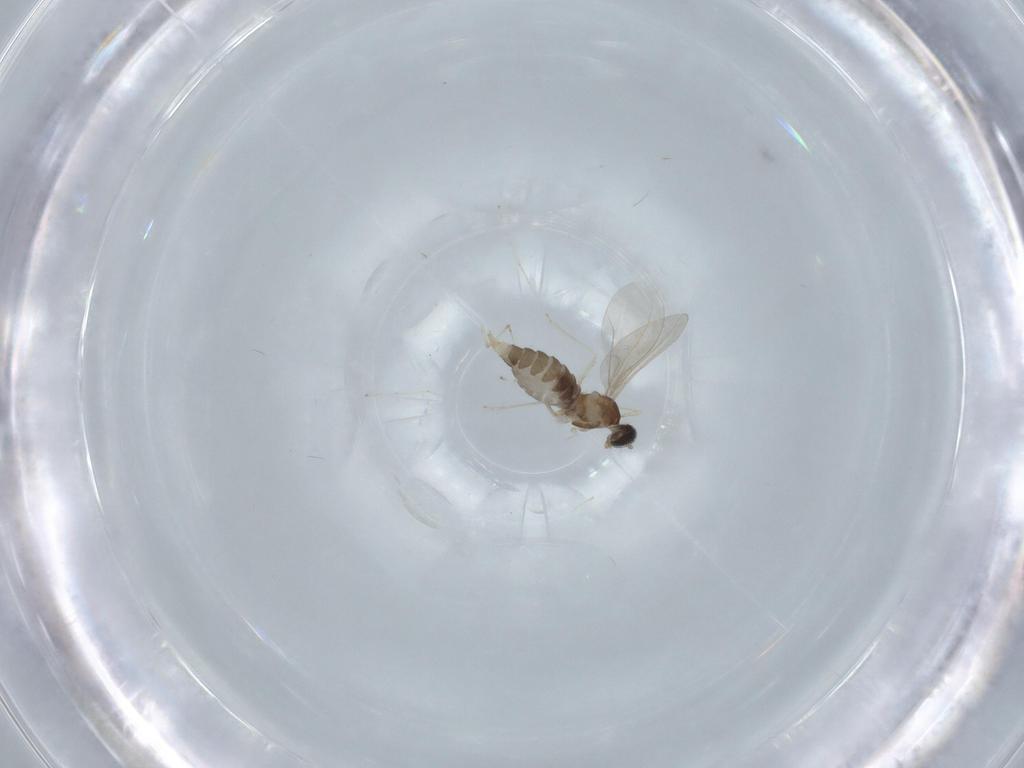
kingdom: Animalia
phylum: Arthropoda
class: Insecta
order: Diptera
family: Cecidomyiidae
